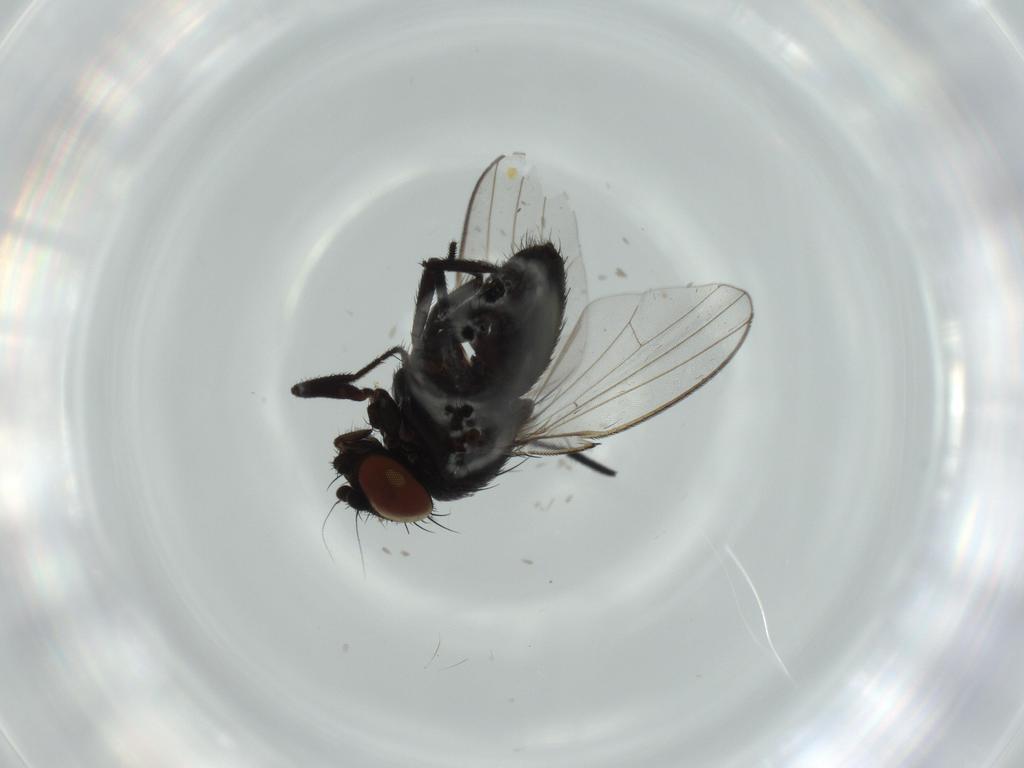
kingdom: Animalia
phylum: Arthropoda
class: Insecta
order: Diptera
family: Milichiidae
